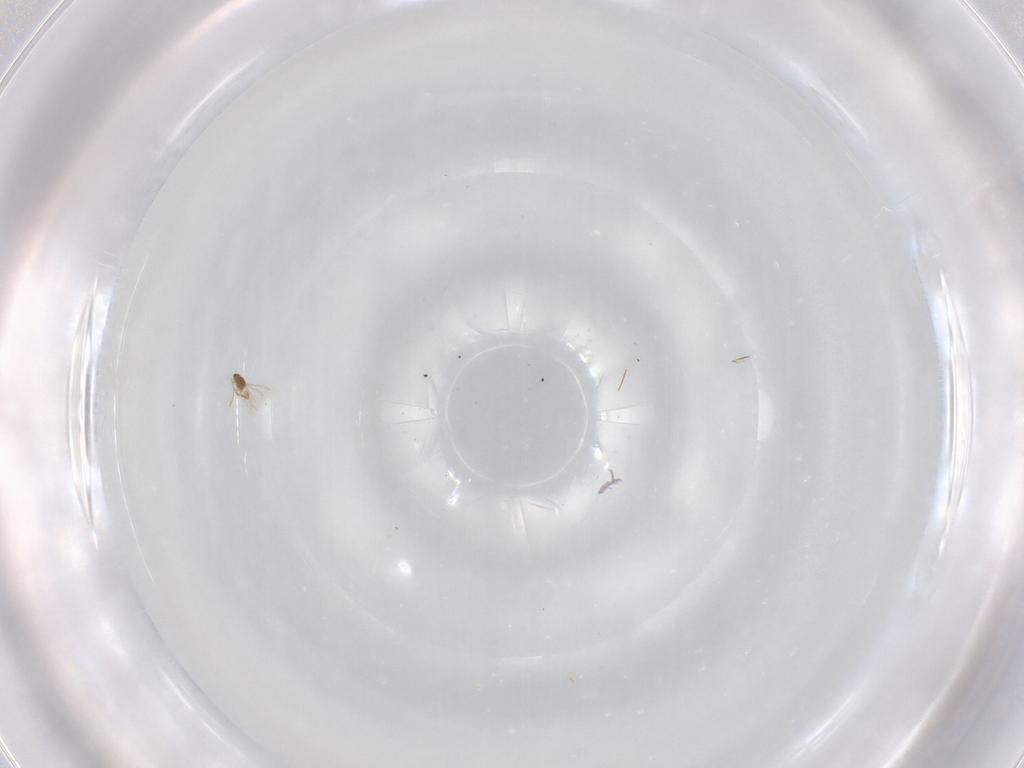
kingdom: Animalia
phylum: Arthropoda
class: Insecta
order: Hymenoptera
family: Mymaridae
